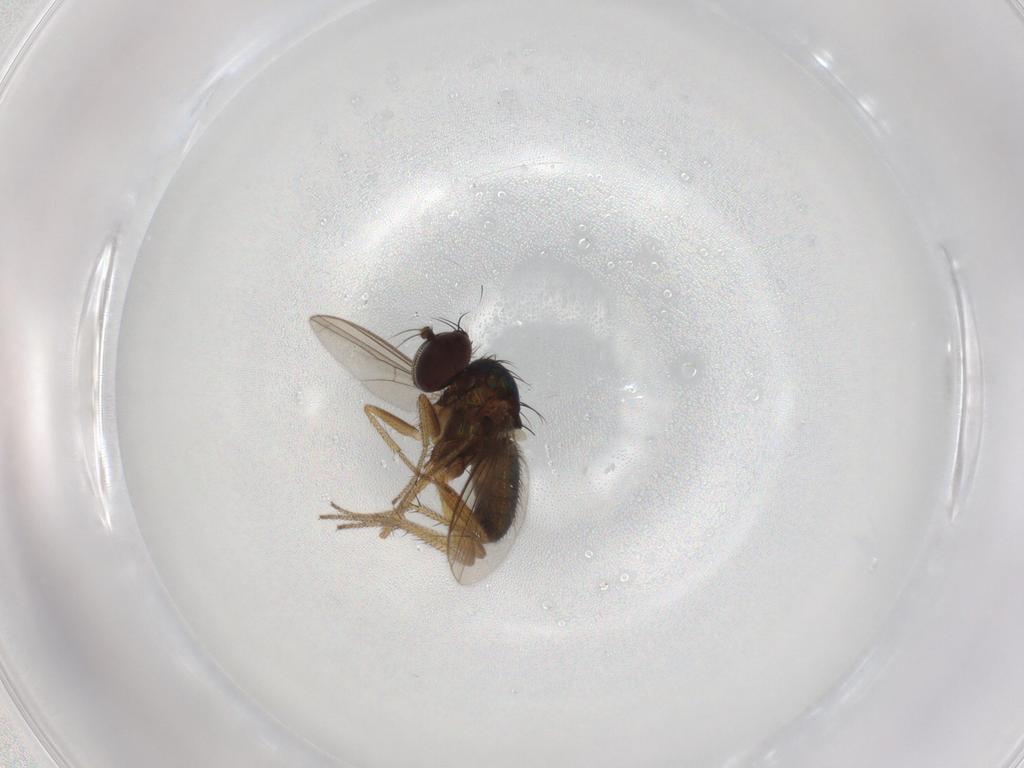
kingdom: Animalia
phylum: Arthropoda
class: Insecta
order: Diptera
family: Dolichopodidae
